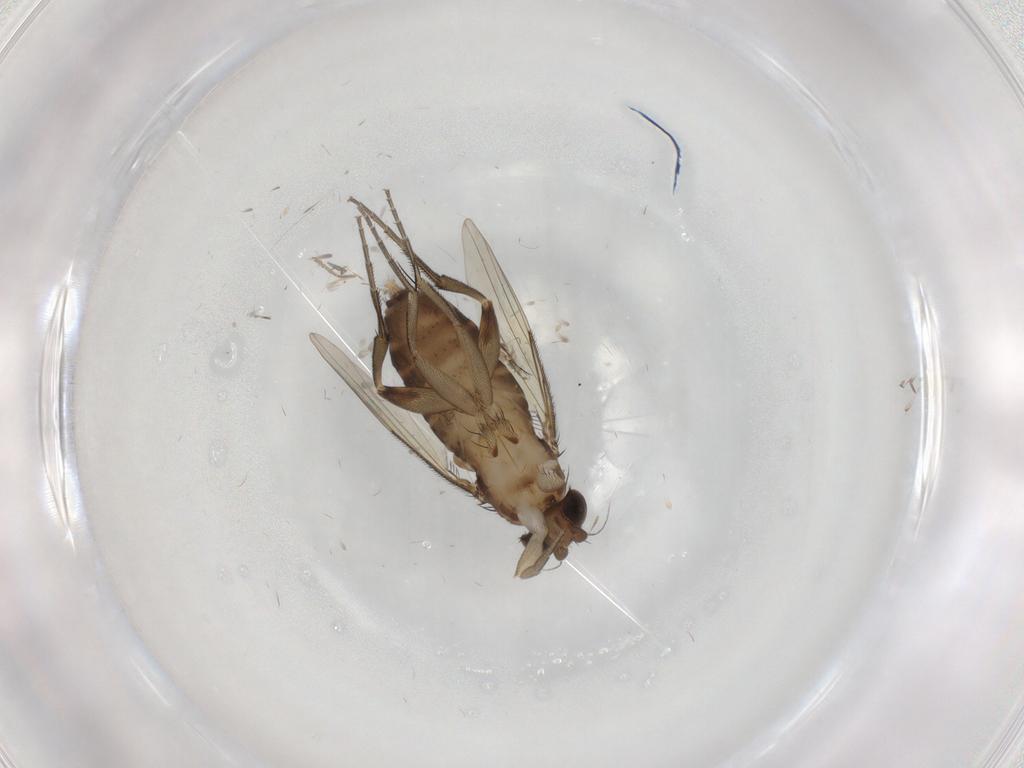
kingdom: Animalia
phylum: Arthropoda
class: Insecta
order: Diptera
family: Phoridae
